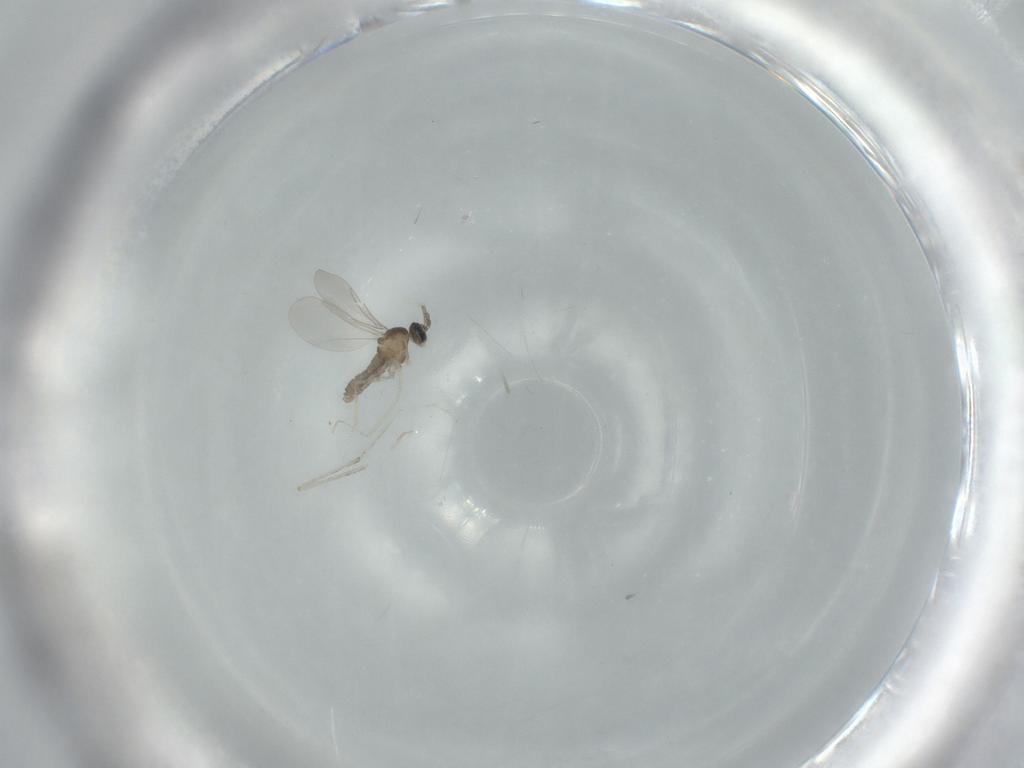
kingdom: Animalia
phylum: Arthropoda
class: Insecta
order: Diptera
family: Cecidomyiidae
